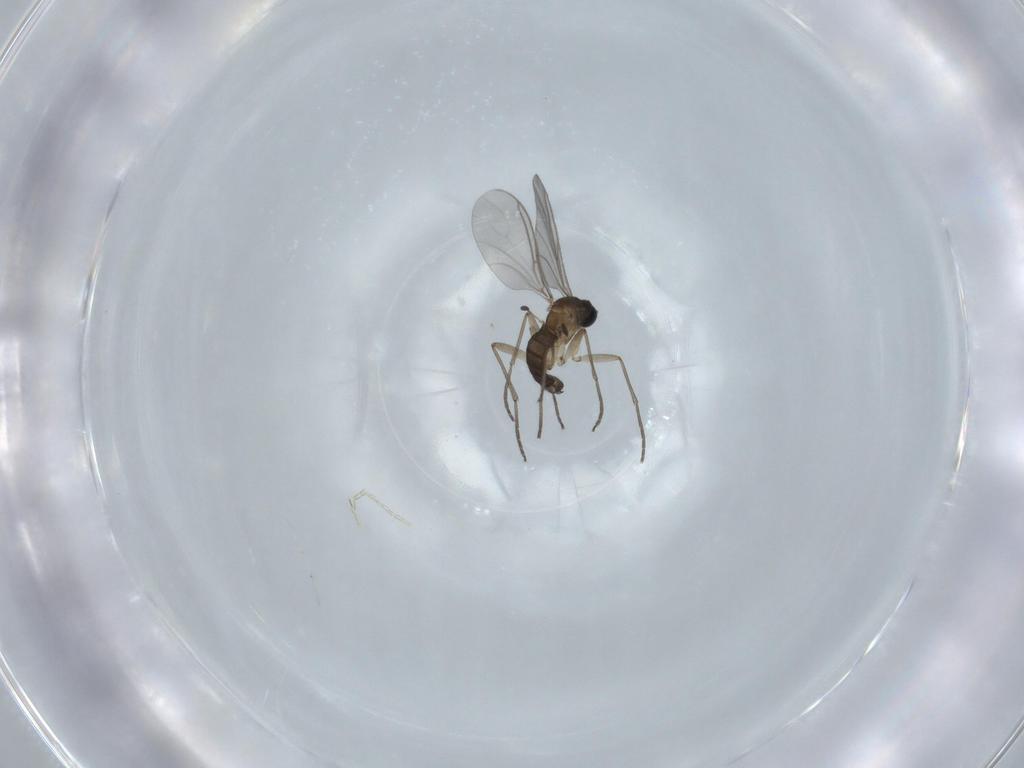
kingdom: Animalia
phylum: Arthropoda
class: Insecta
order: Diptera
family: Sciaridae
